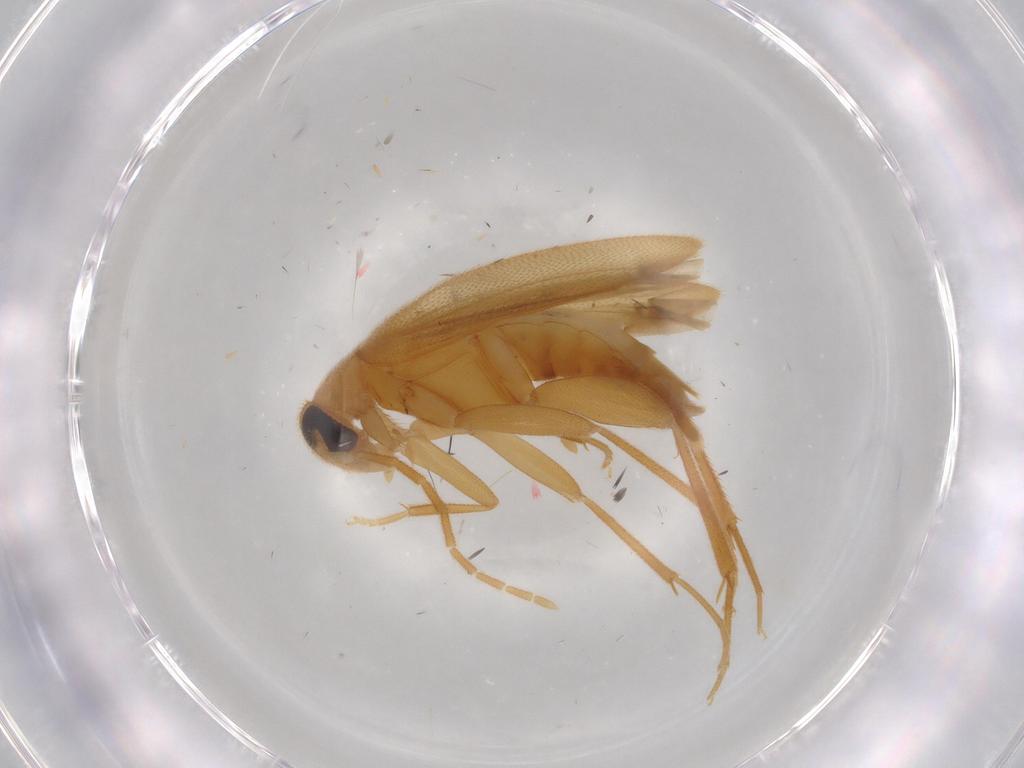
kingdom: Animalia
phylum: Arthropoda
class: Insecta
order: Coleoptera
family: Scraptiidae
